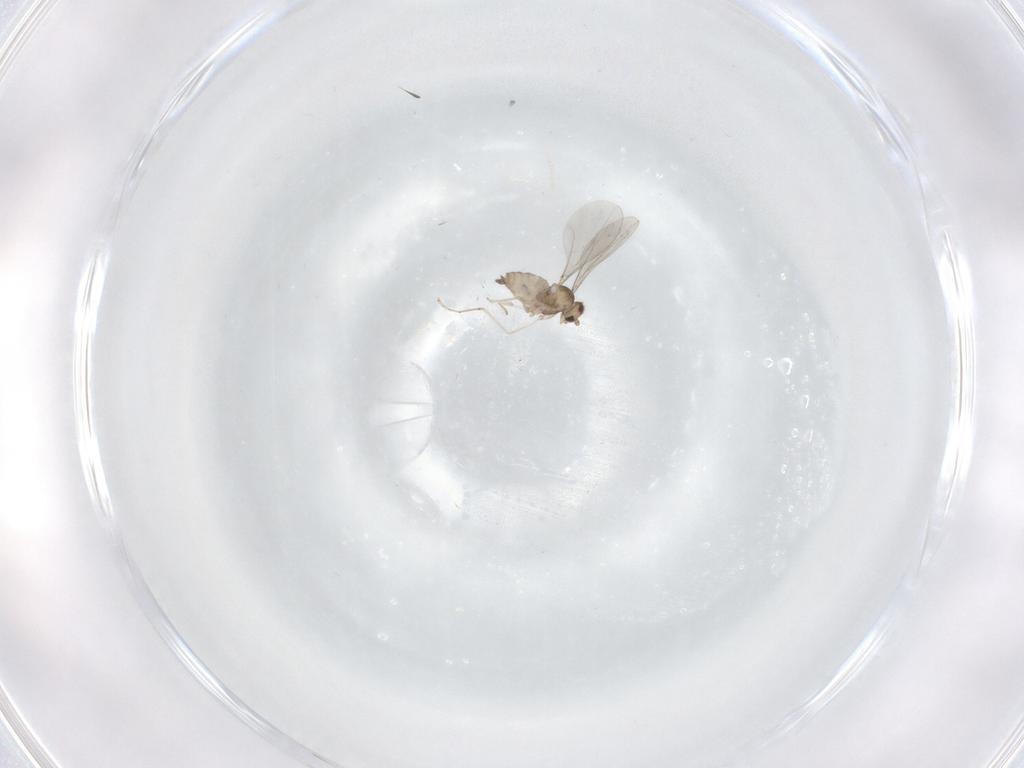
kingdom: Animalia
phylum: Arthropoda
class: Insecta
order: Diptera
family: Cecidomyiidae
